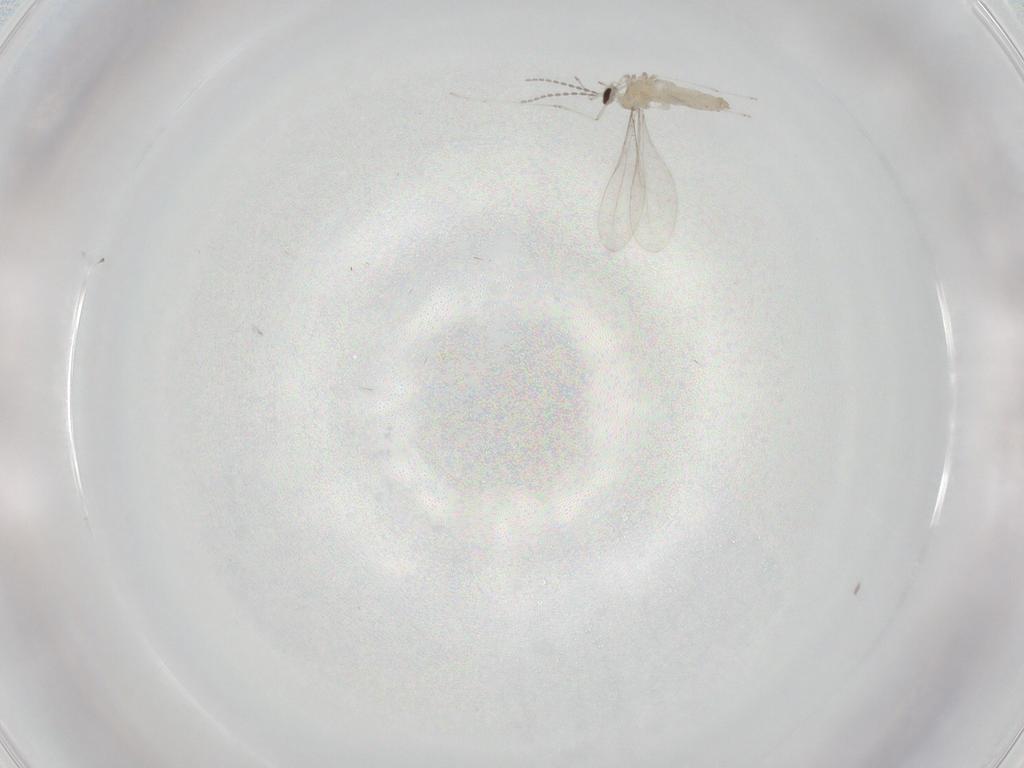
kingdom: Animalia
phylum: Arthropoda
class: Insecta
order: Diptera
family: Cecidomyiidae
